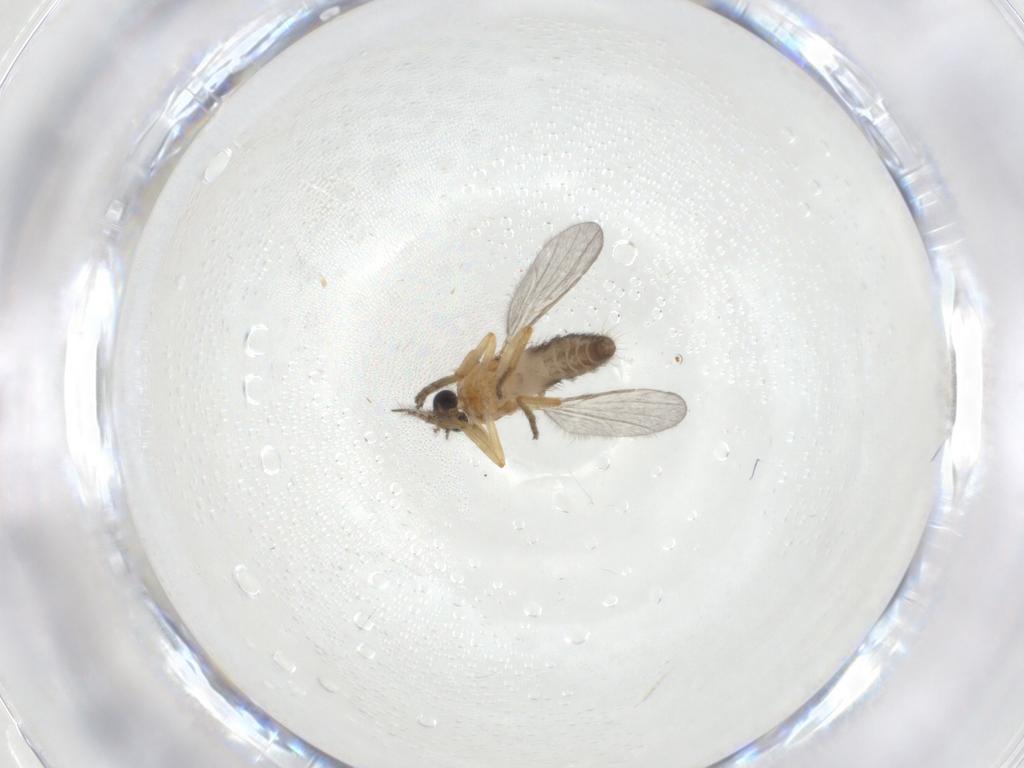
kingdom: Animalia
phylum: Arthropoda
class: Insecta
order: Diptera
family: Ceratopogonidae
